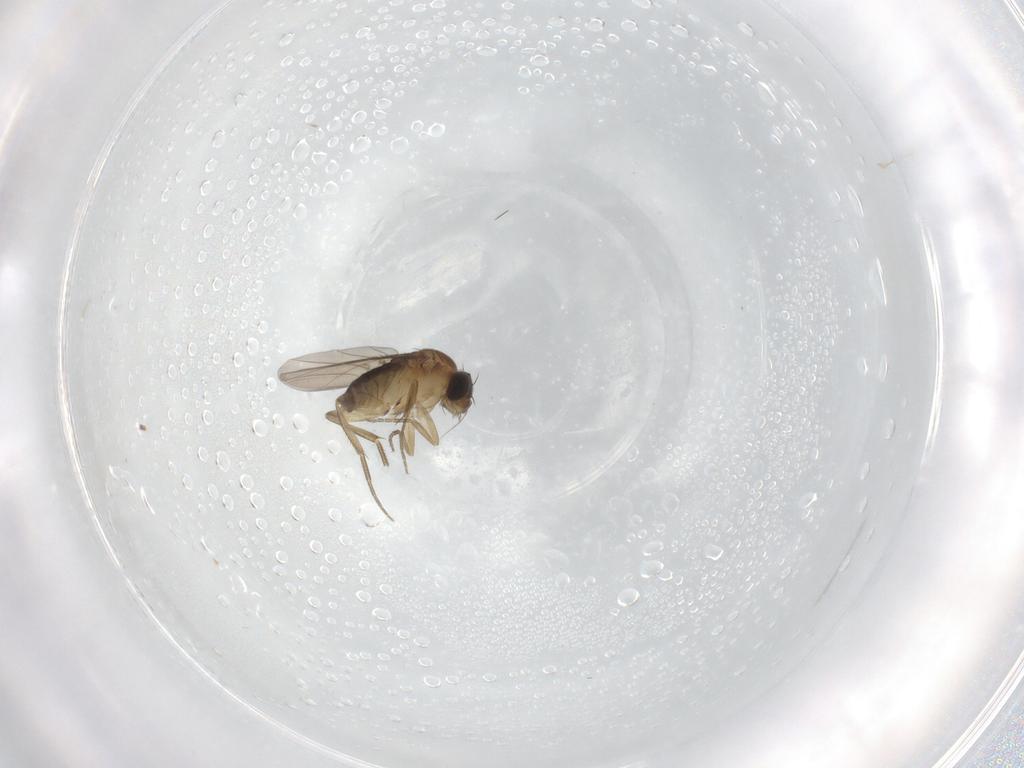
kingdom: Animalia
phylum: Arthropoda
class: Insecta
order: Diptera
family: Phoridae
